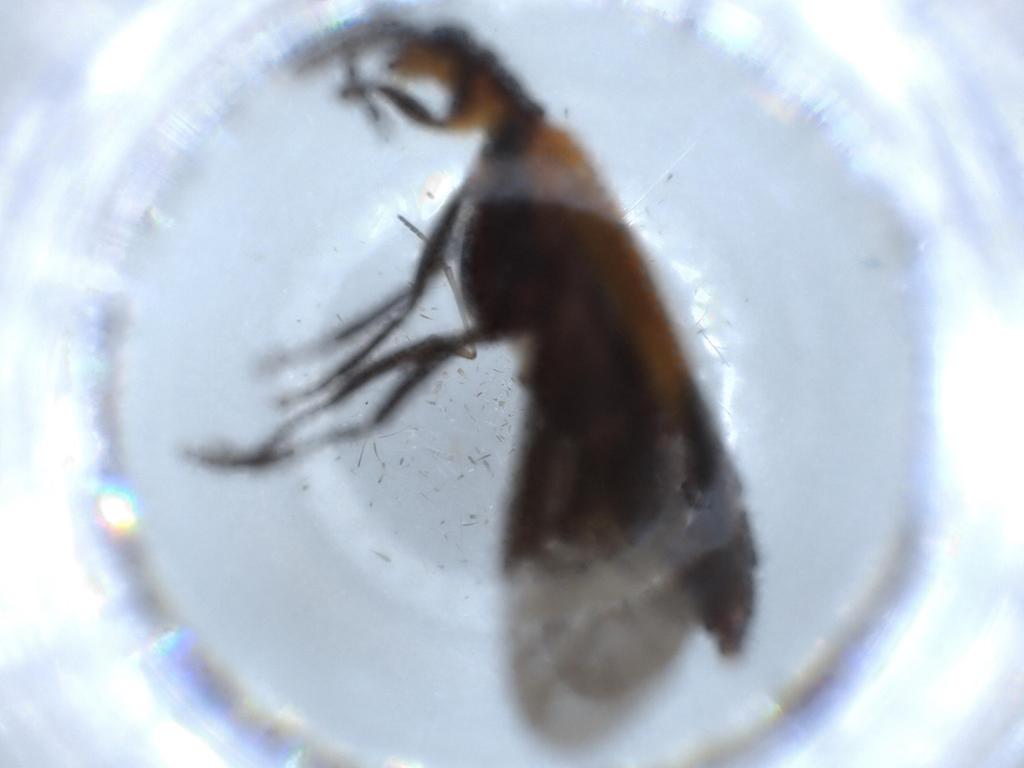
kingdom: Animalia
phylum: Arthropoda
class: Insecta
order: Coleoptera
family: Cleridae
